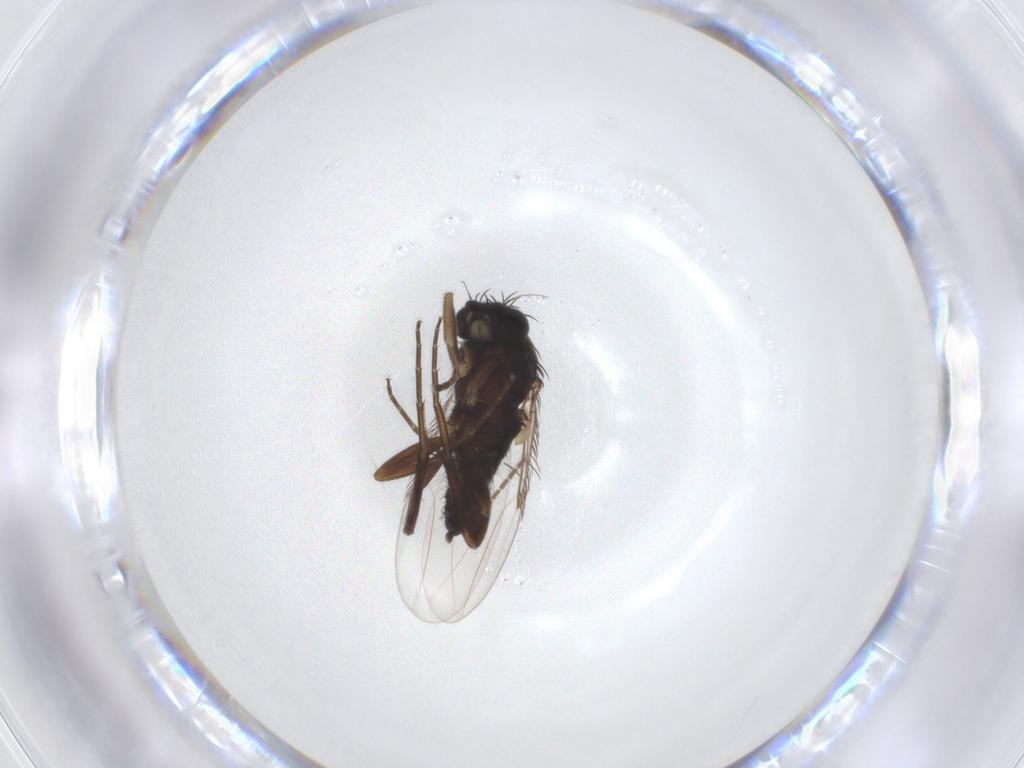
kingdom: Animalia
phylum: Arthropoda
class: Insecta
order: Diptera
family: Phoridae
